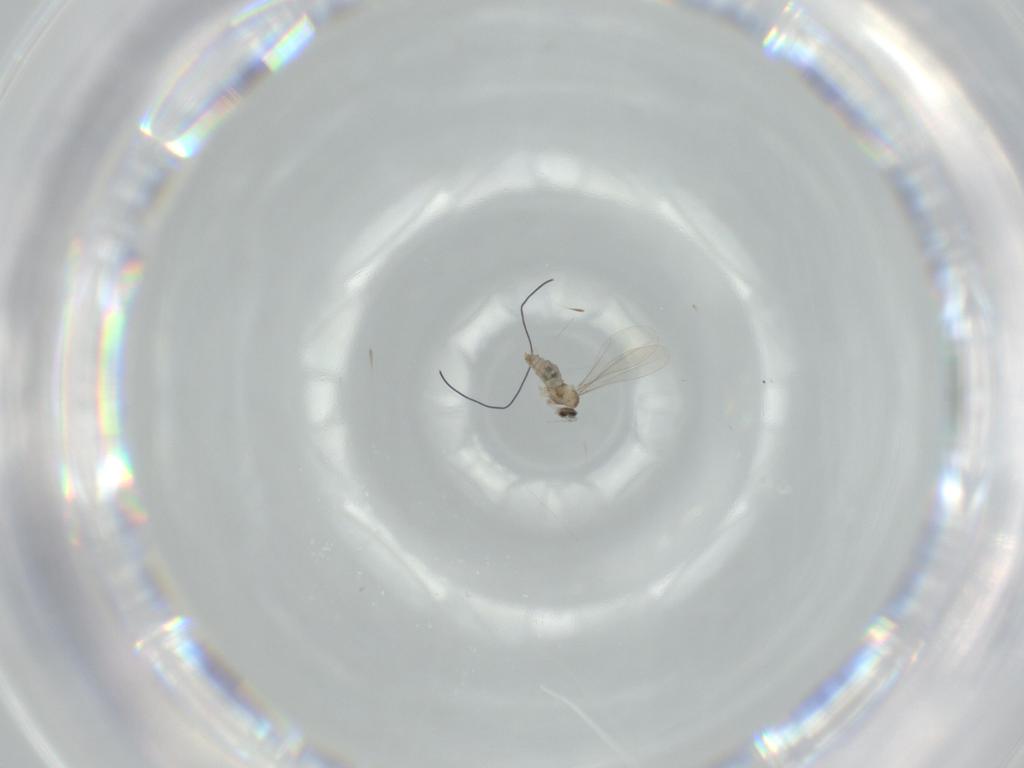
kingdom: Animalia
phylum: Arthropoda
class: Insecta
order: Diptera
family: Cecidomyiidae
